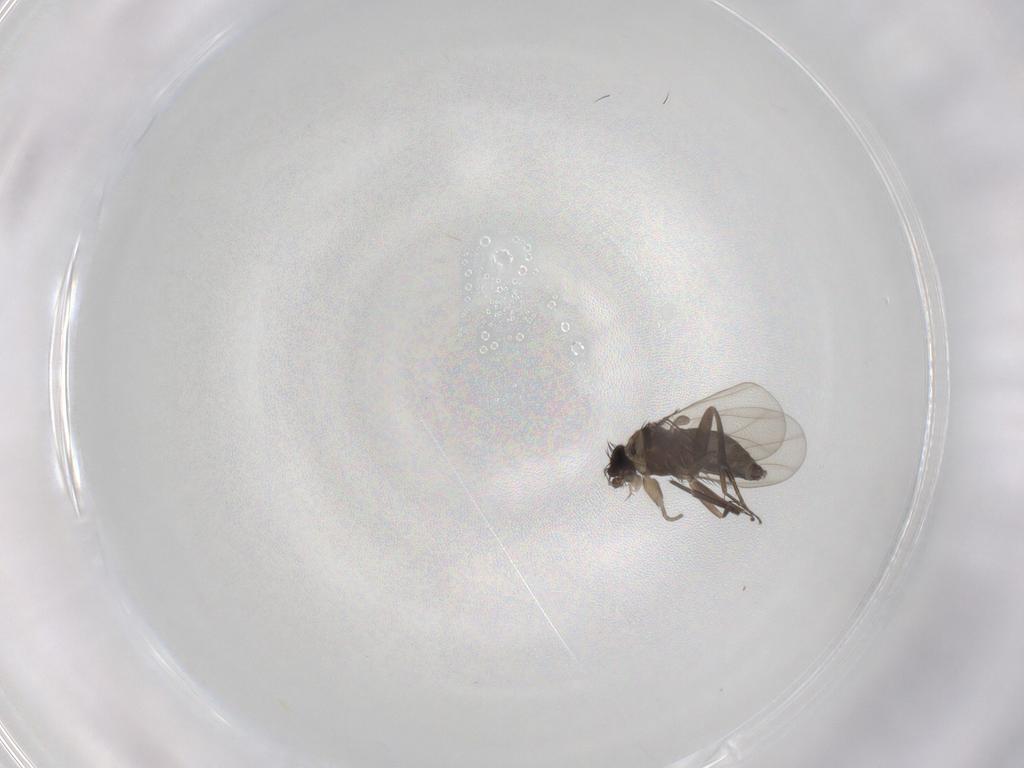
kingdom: Animalia
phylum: Arthropoda
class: Insecta
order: Diptera
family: Phoridae
